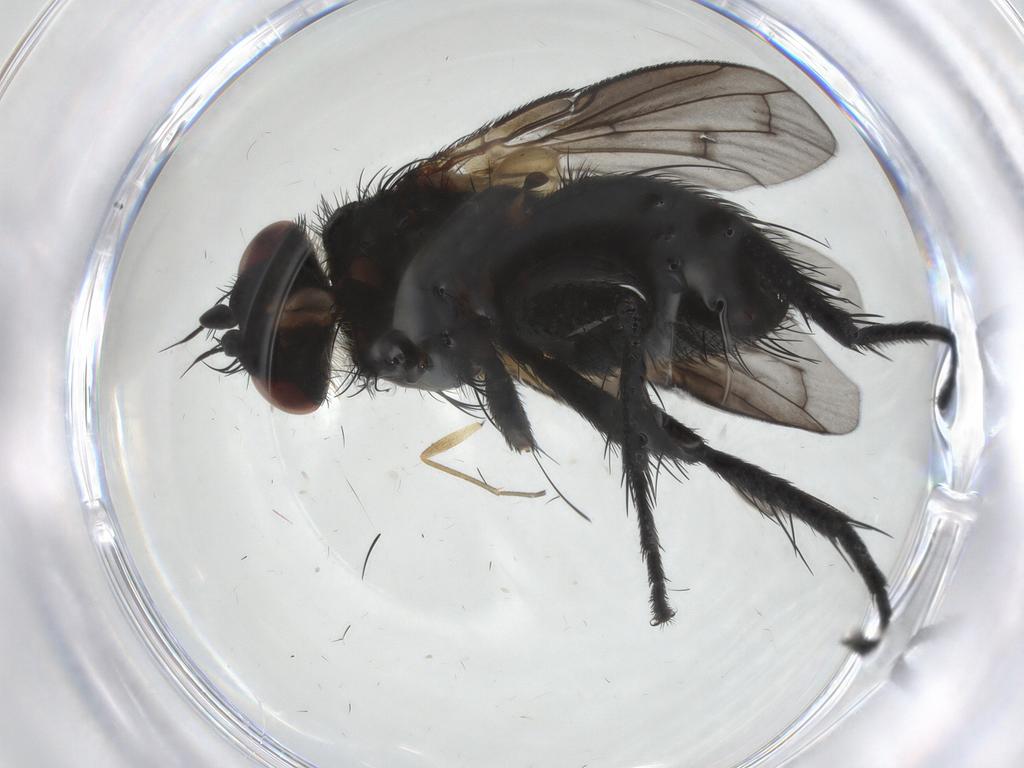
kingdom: Animalia
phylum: Arthropoda
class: Insecta
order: Diptera
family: Tachinidae
